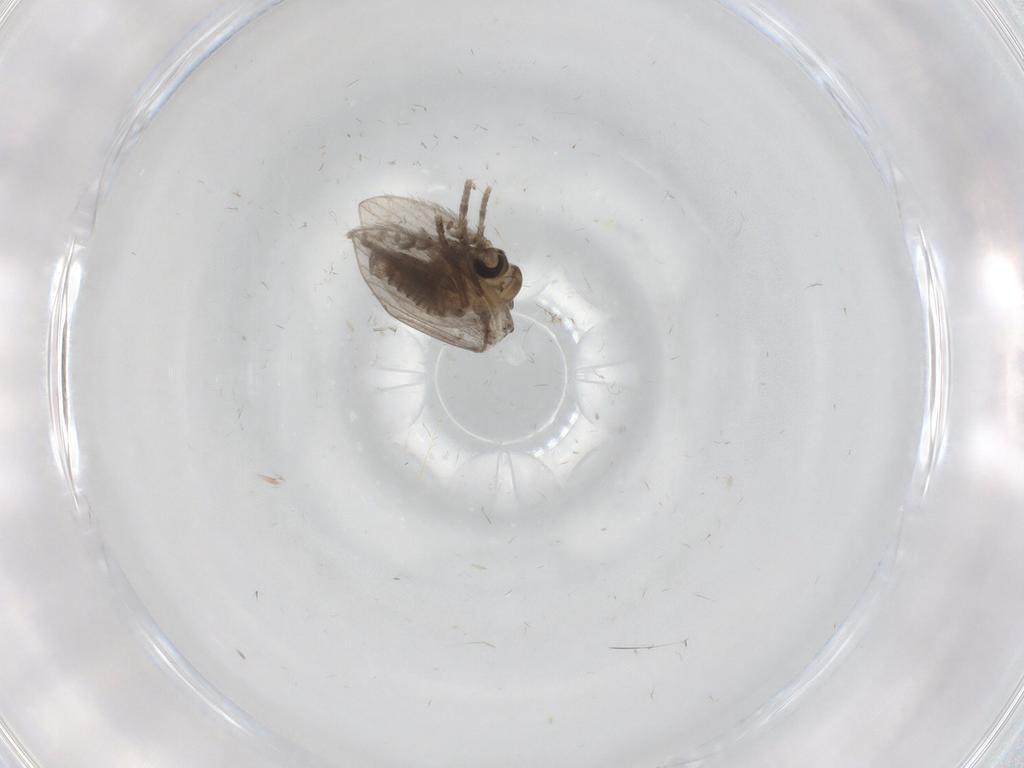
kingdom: Animalia
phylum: Arthropoda
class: Insecta
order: Diptera
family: Psychodidae
